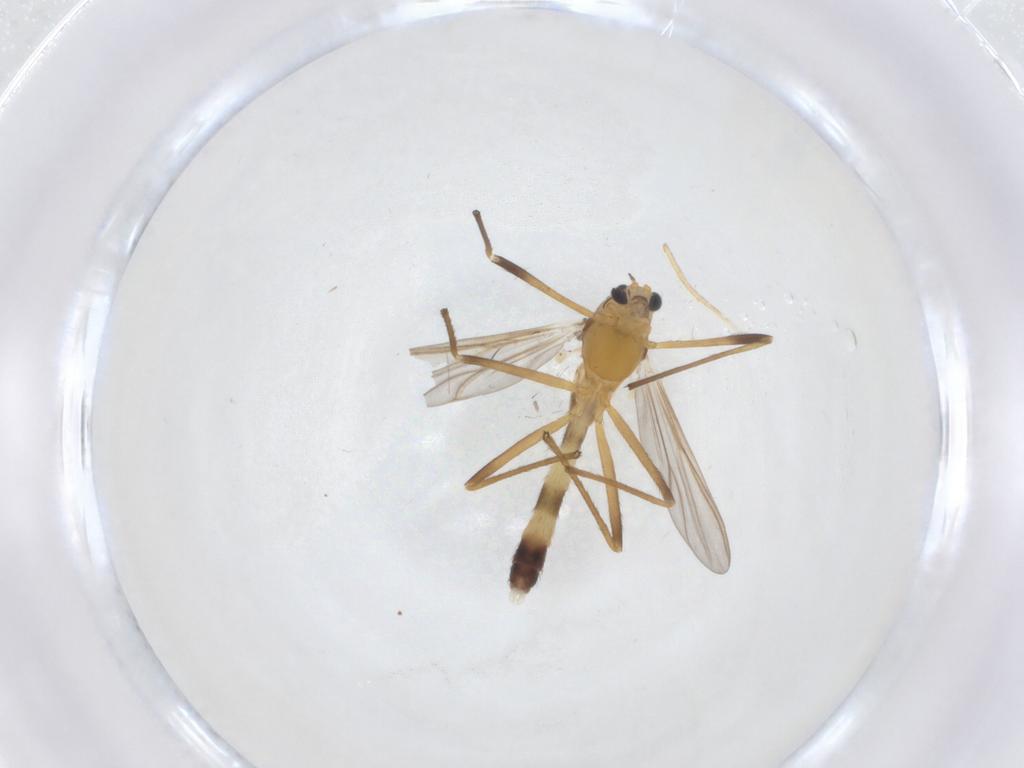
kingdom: Animalia
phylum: Arthropoda
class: Insecta
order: Diptera
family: Chironomidae
